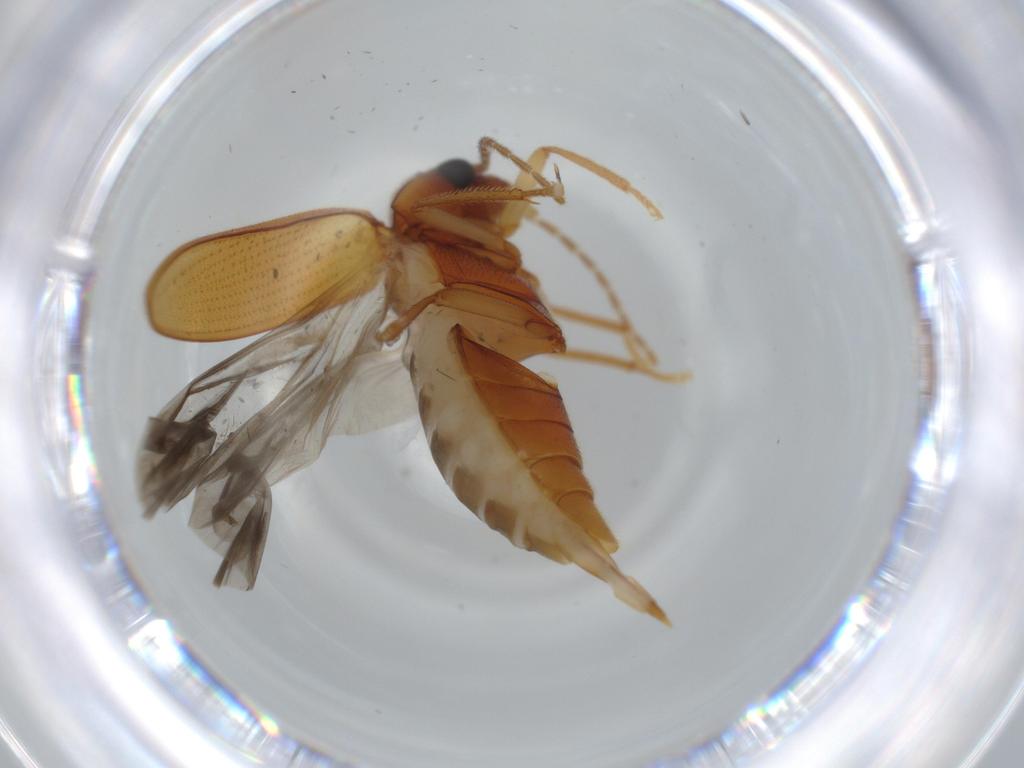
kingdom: Animalia
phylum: Arthropoda
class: Insecta
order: Coleoptera
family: Ptilodactylidae
